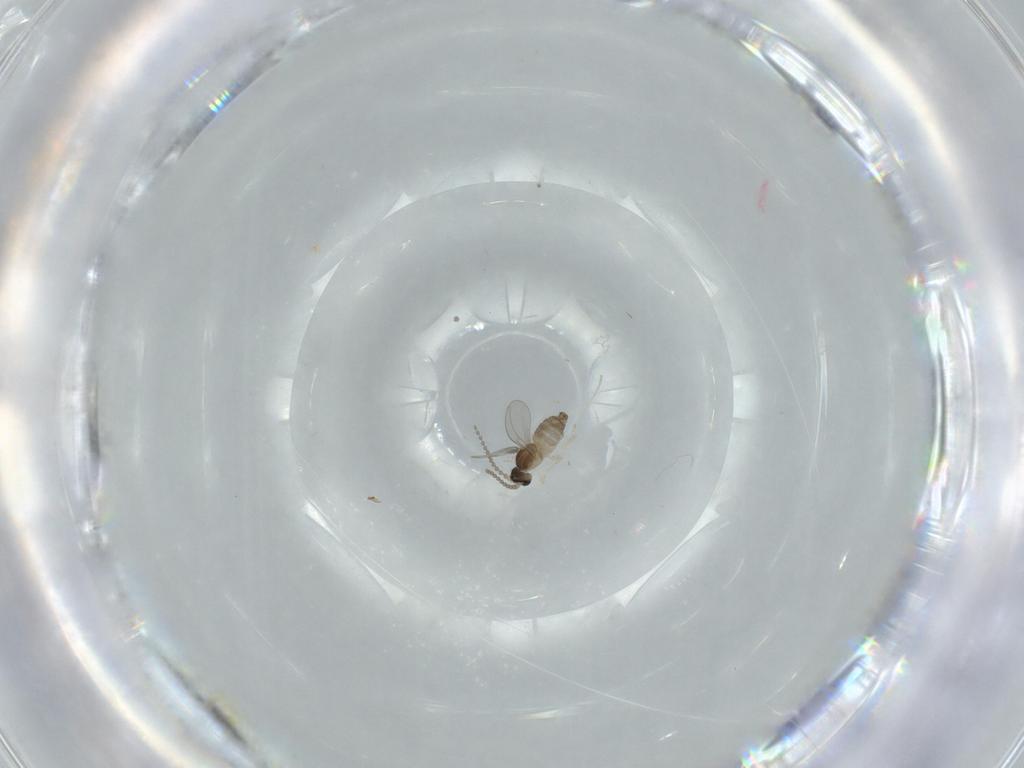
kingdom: Animalia
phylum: Arthropoda
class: Insecta
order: Diptera
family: Cecidomyiidae
